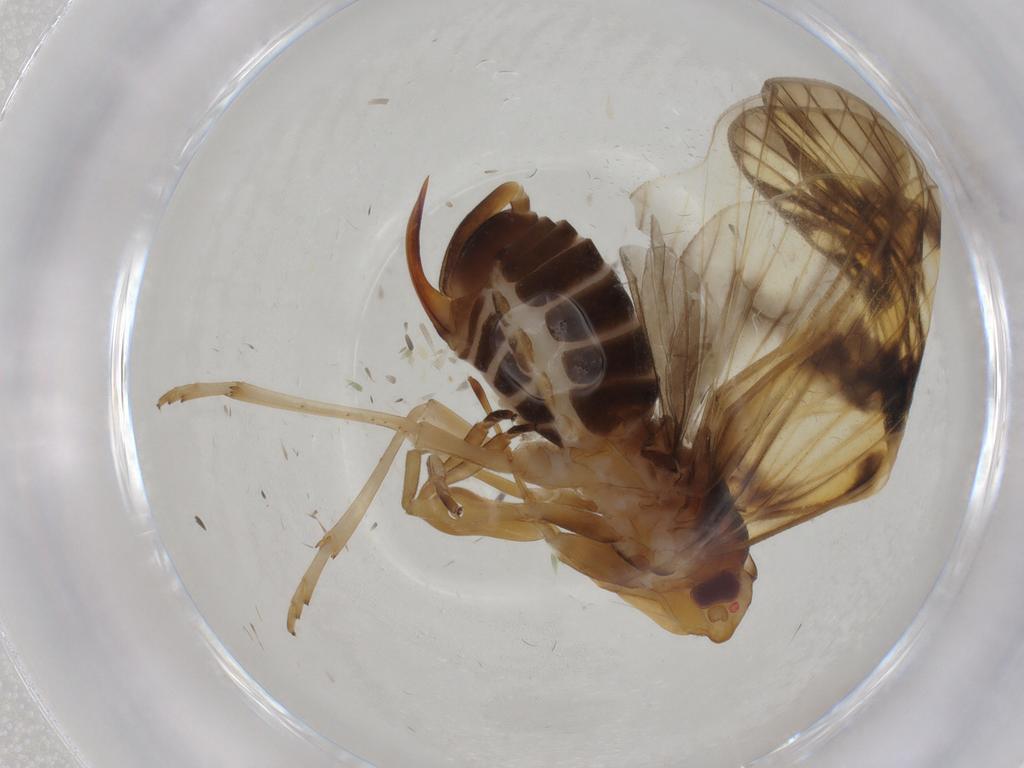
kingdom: Animalia
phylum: Arthropoda
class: Insecta
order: Hemiptera
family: Cixiidae
